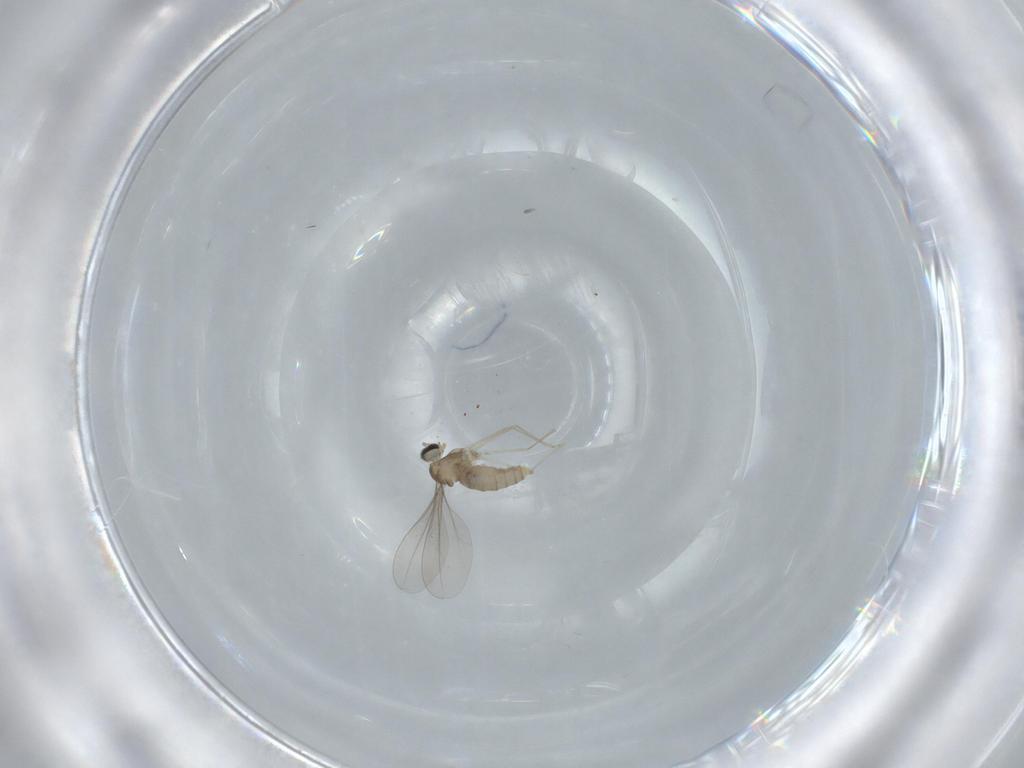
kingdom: Animalia
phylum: Arthropoda
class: Insecta
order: Diptera
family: Cecidomyiidae
